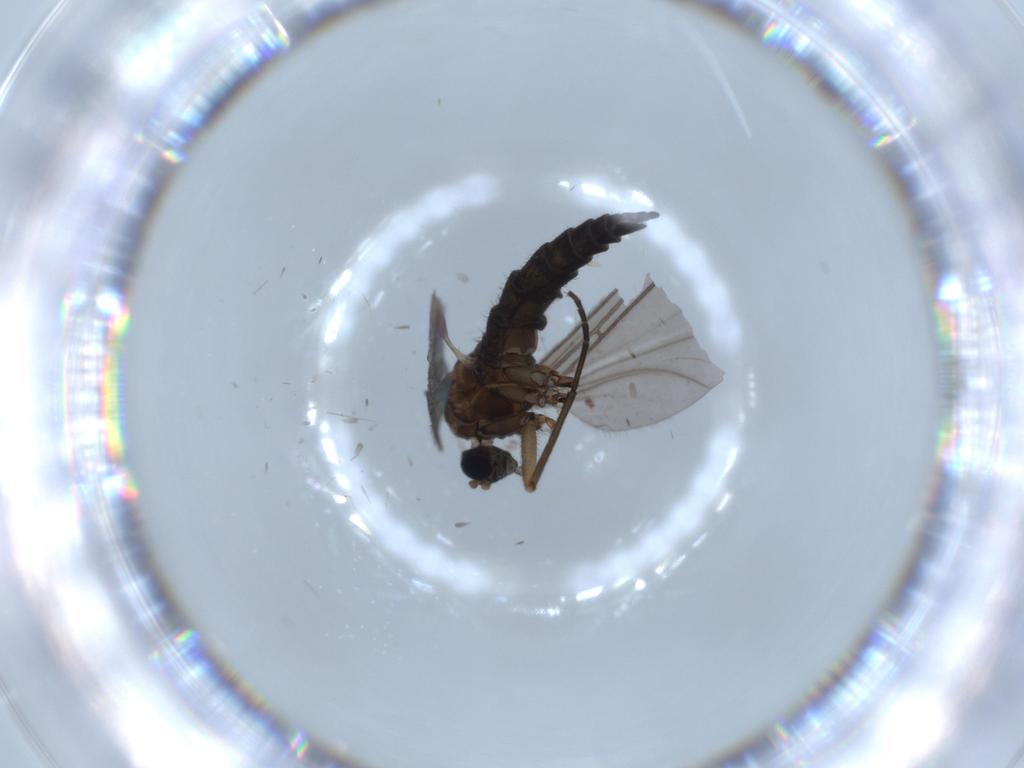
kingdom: Animalia
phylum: Arthropoda
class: Insecta
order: Diptera
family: Sciaridae
